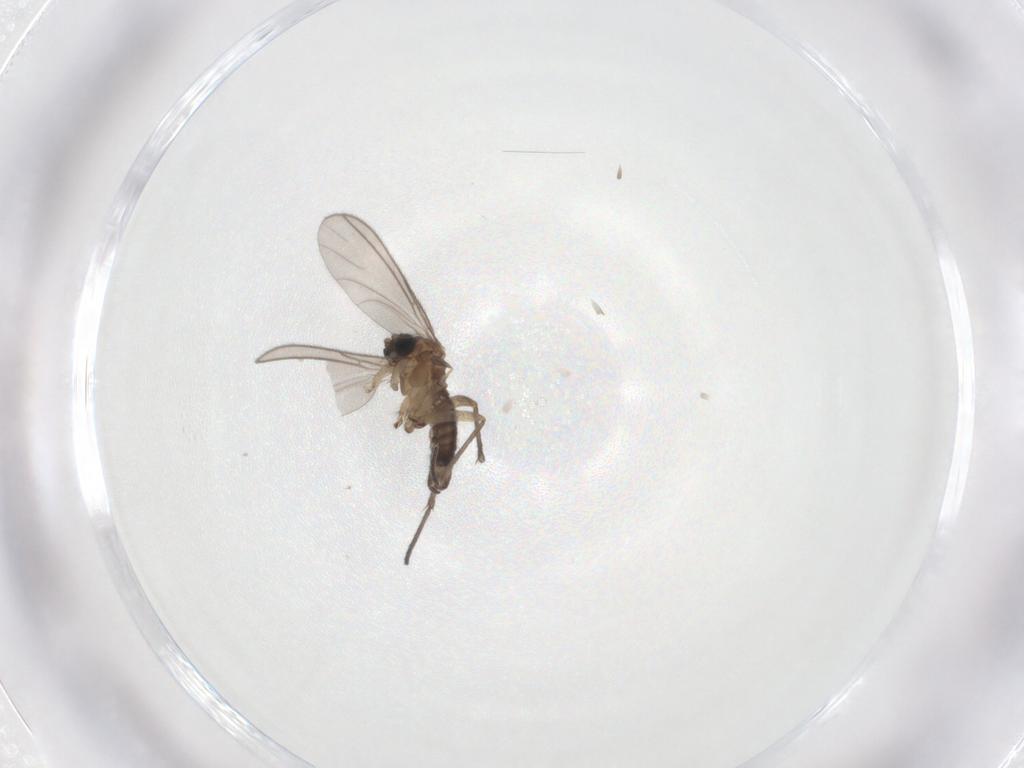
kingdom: Animalia
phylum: Arthropoda
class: Insecta
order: Diptera
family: Sciaridae
